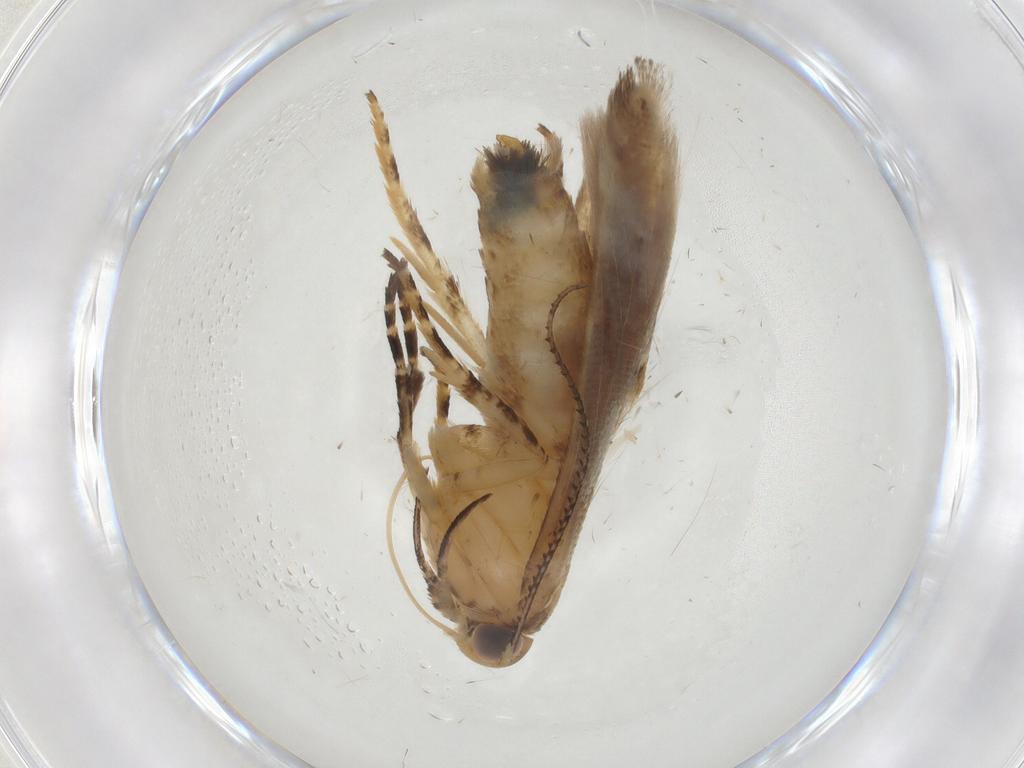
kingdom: Animalia
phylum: Arthropoda
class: Insecta
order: Lepidoptera
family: Gelechiidae
